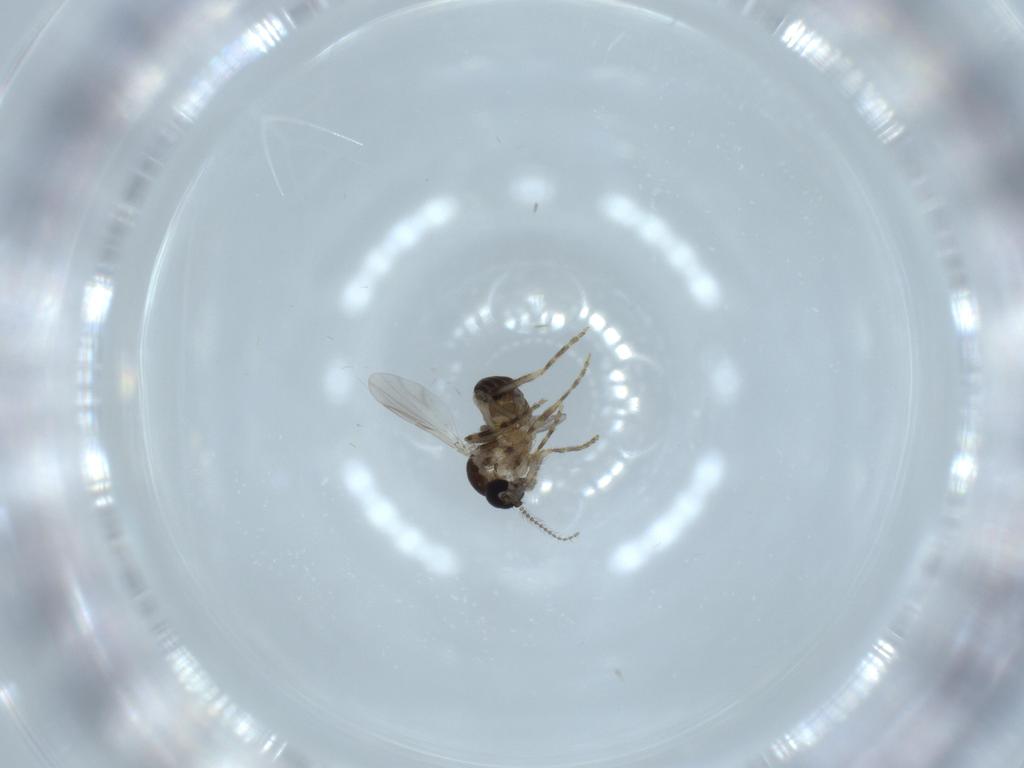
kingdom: Animalia
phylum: Arthropoda
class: Insecta
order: Diptera
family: Ceratopogonidae
